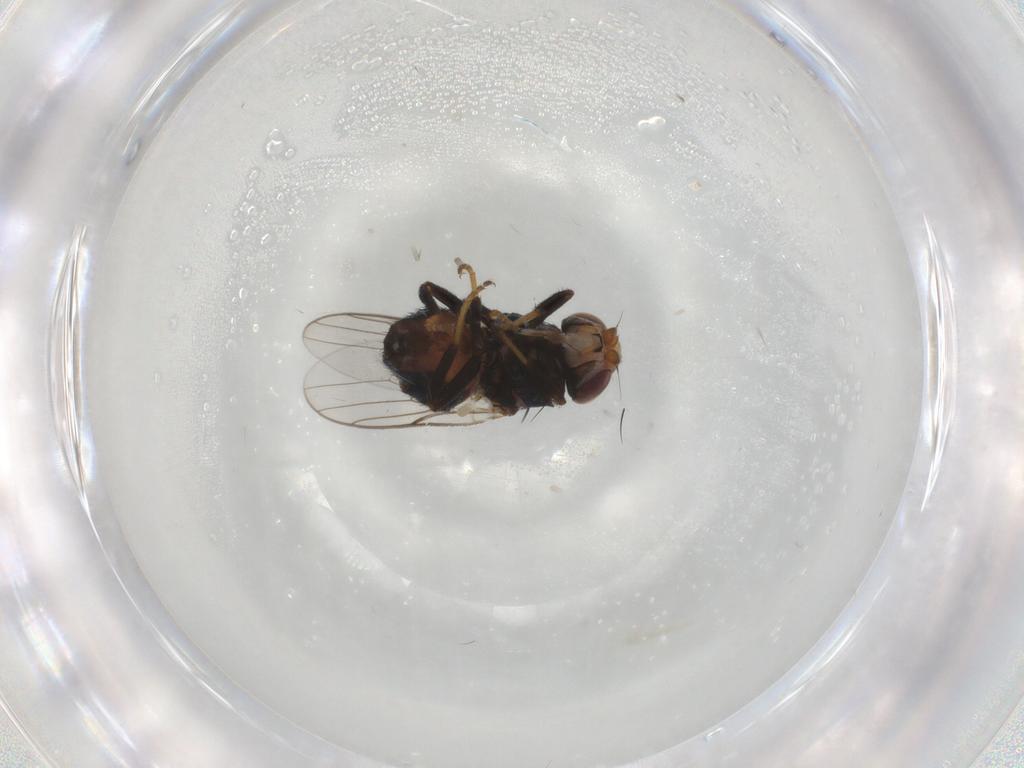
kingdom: Animalia
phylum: Arthropoda
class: Insecta
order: Diptera
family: Chloropidae
